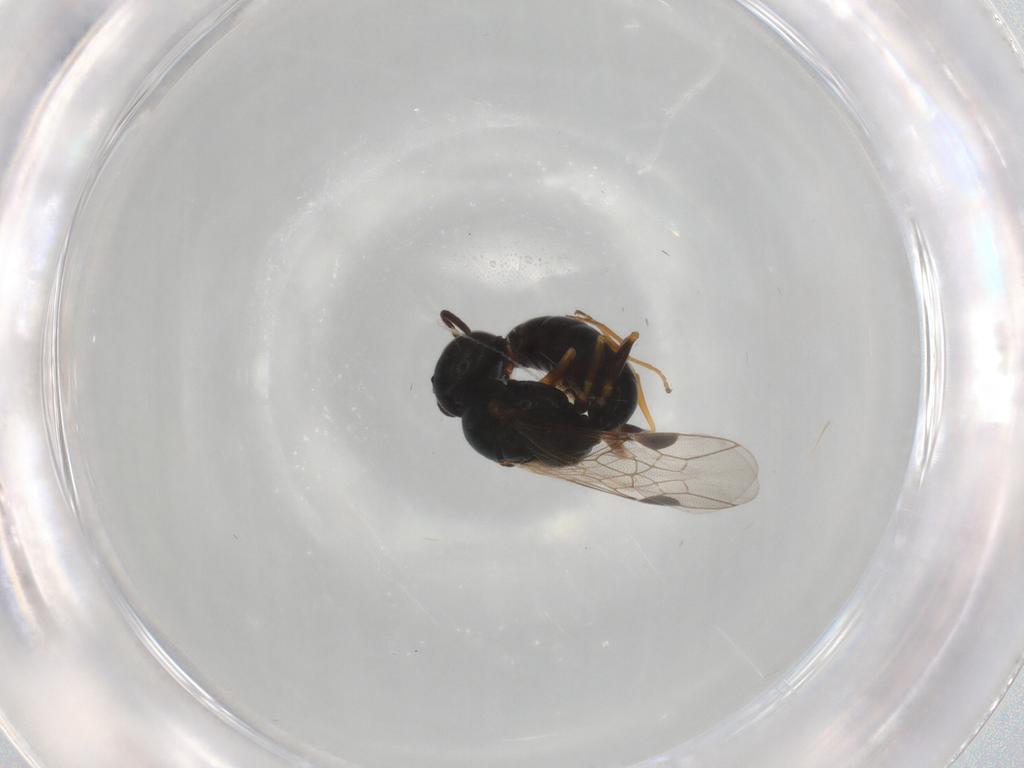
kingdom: Animalia
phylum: Arthropoda
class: Insecta
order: Hymenoptera
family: Crabronidae
